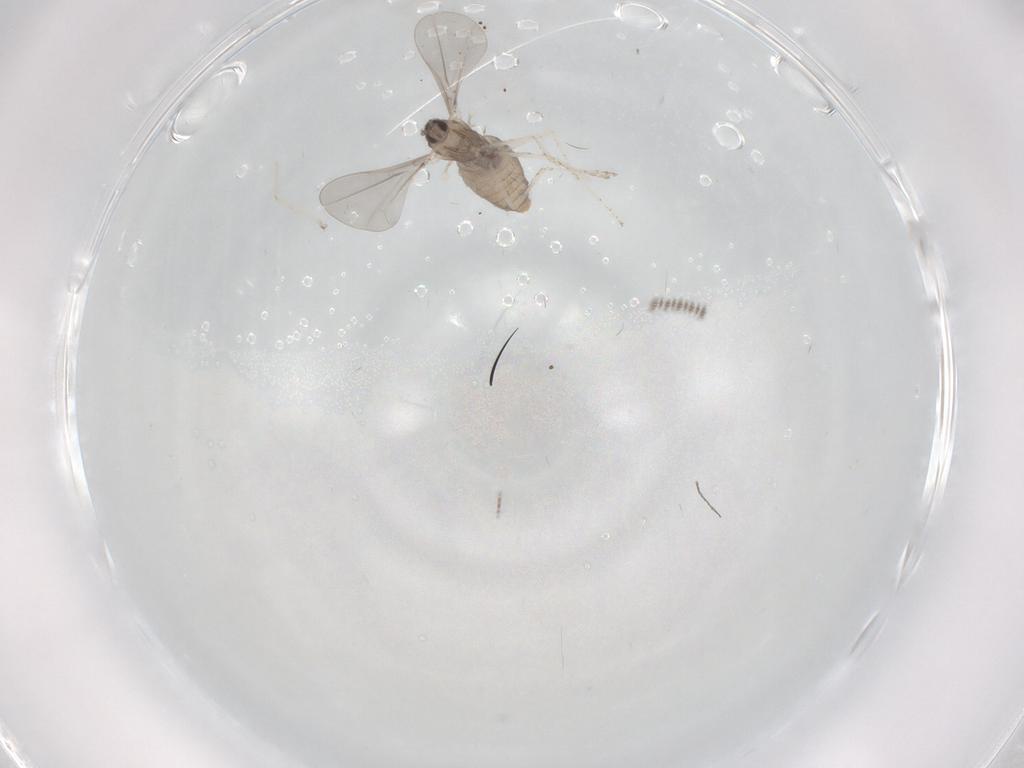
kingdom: Animalia
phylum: Arthropoda
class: Insecta
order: Diptera
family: Cecidomyiidae
